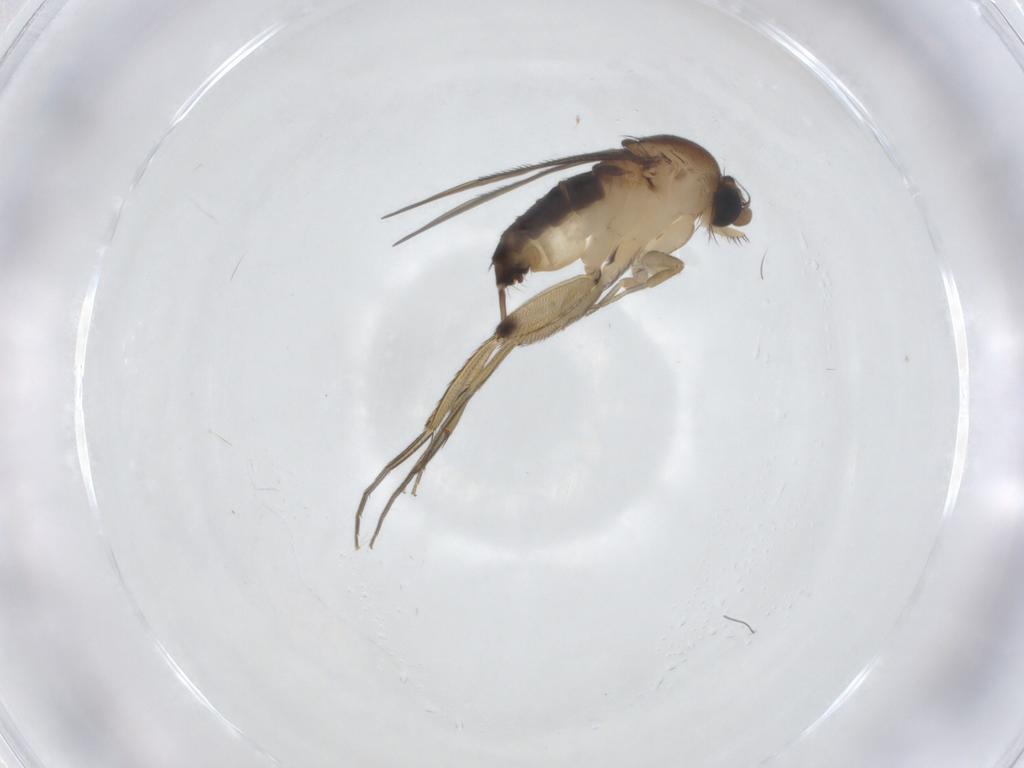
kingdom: Animalia
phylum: Arthropoda
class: Insecta
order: Diptera
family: Phoridae
